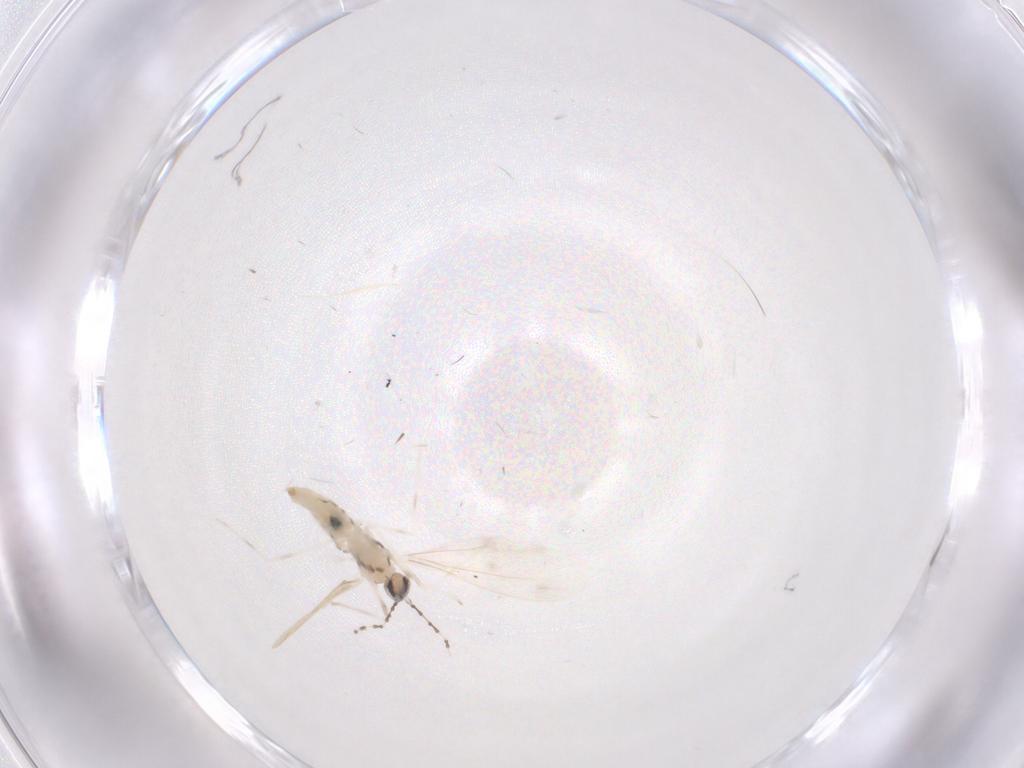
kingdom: Animalia
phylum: Arthropoda
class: Insecta
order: Diptera
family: Cecidomyiidae
